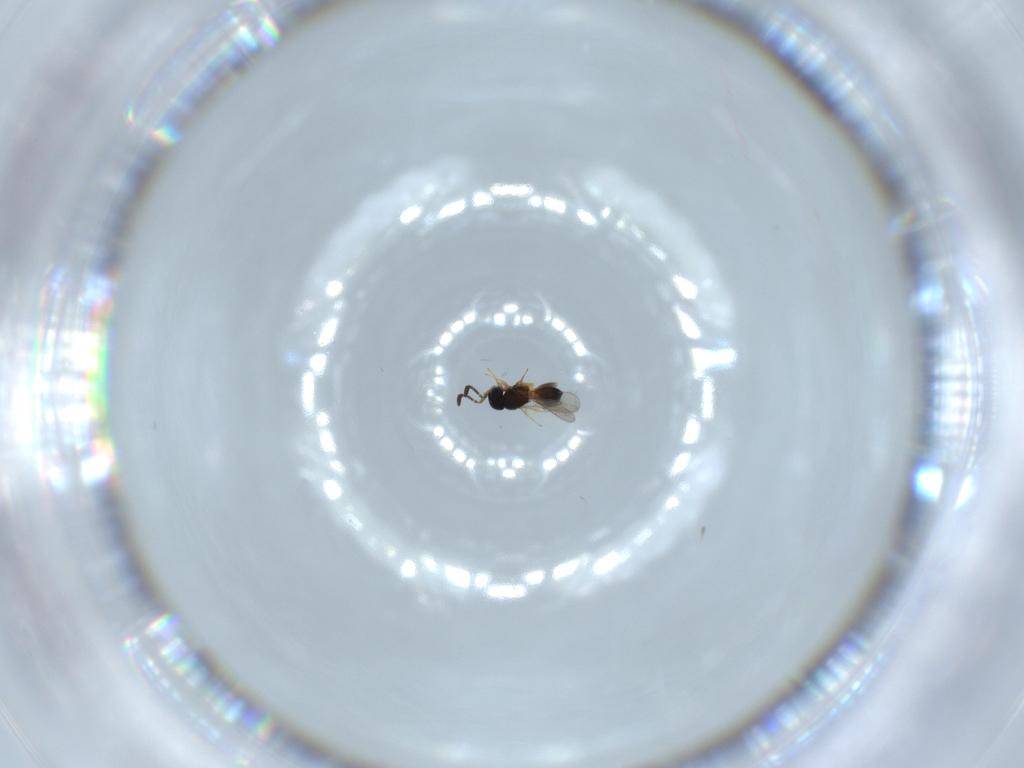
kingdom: Animalia
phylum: Arthropoda
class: Insecta
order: Hymenoptera
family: Scelionidae
